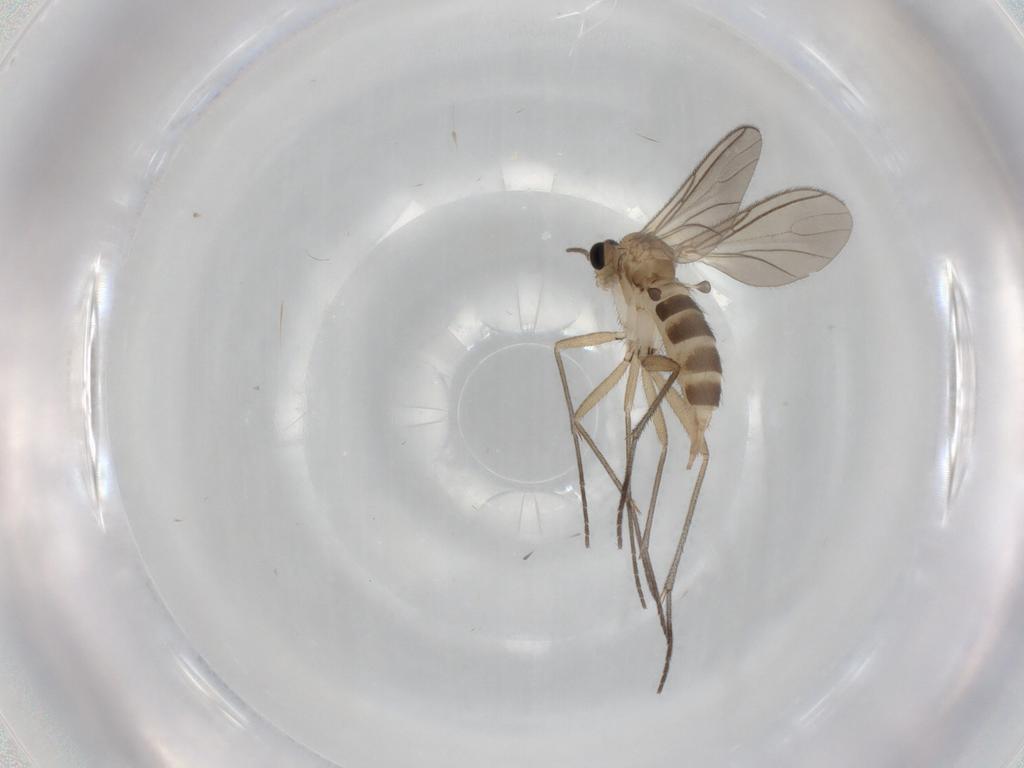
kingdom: Animalia
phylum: Arthropoda
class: Insecta
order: Diptera
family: Sciaridae
